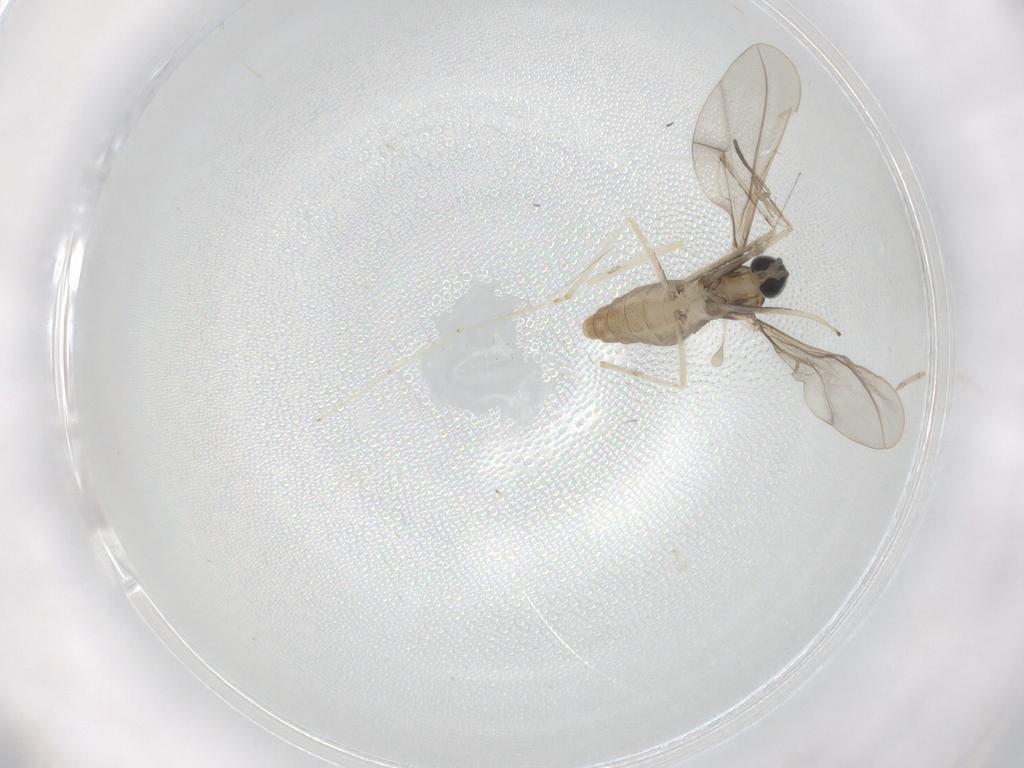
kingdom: Animalia
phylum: Arthropoda
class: Insecta
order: Diptera
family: Cecidomyiidae
